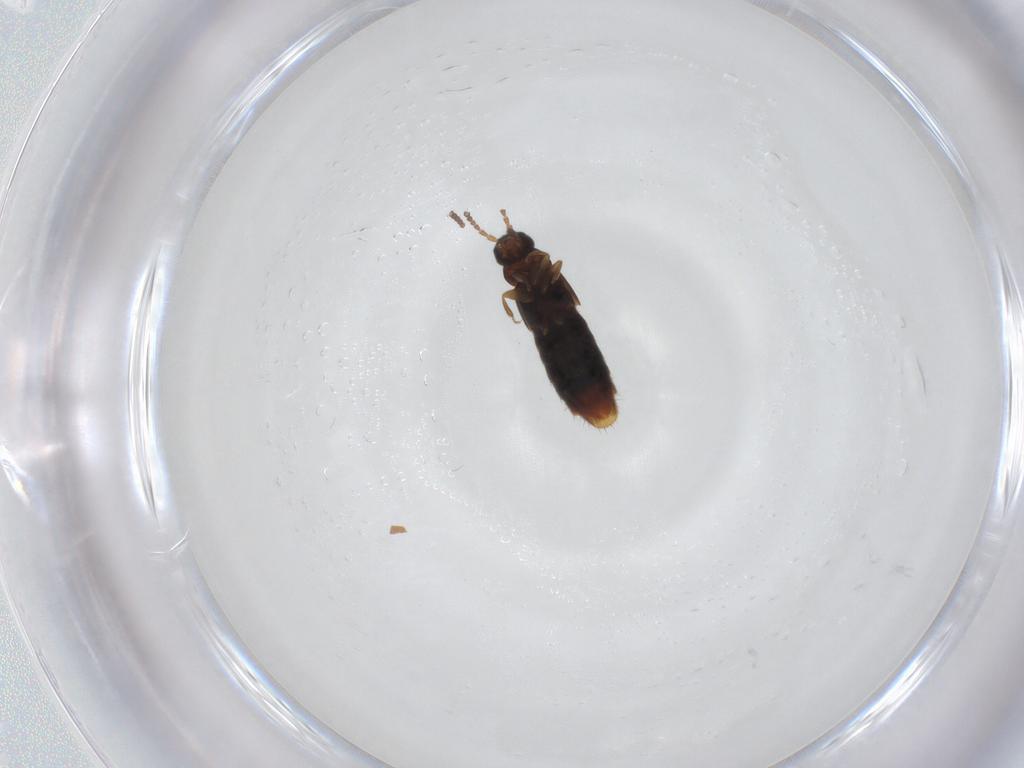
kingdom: Animalia
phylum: Arthropoda
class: Insecta
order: Coleoptera
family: Staphylinidae
